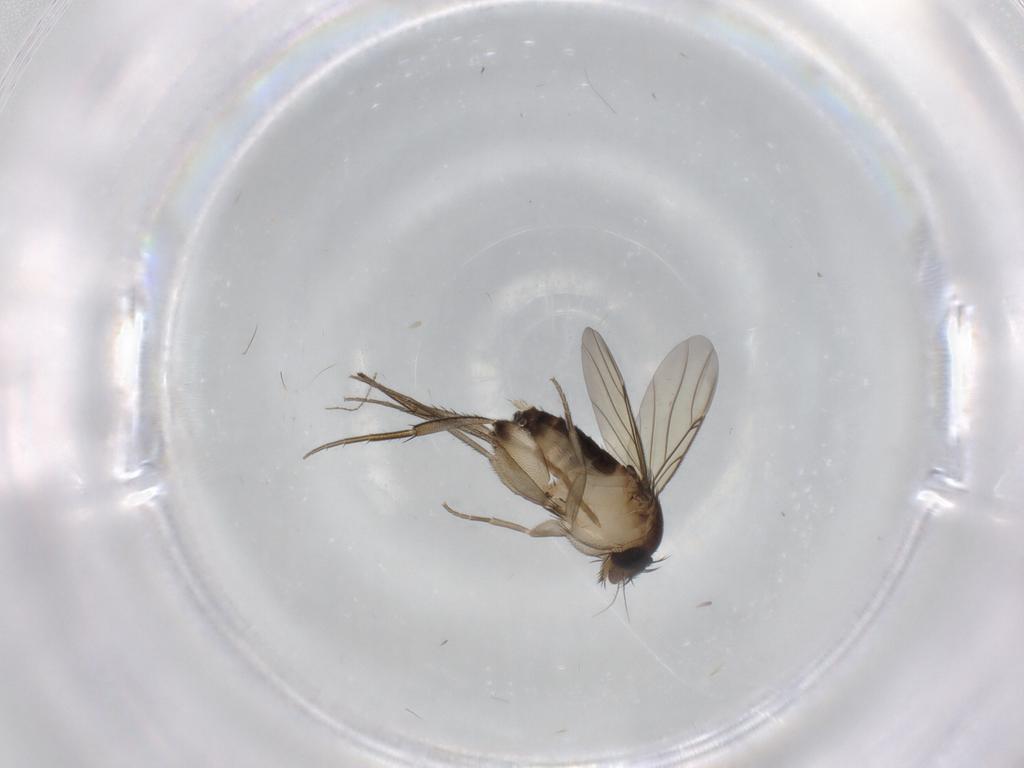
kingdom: Animalia
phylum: Arthropoda
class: Insecta
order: Diptera
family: Phoridae
